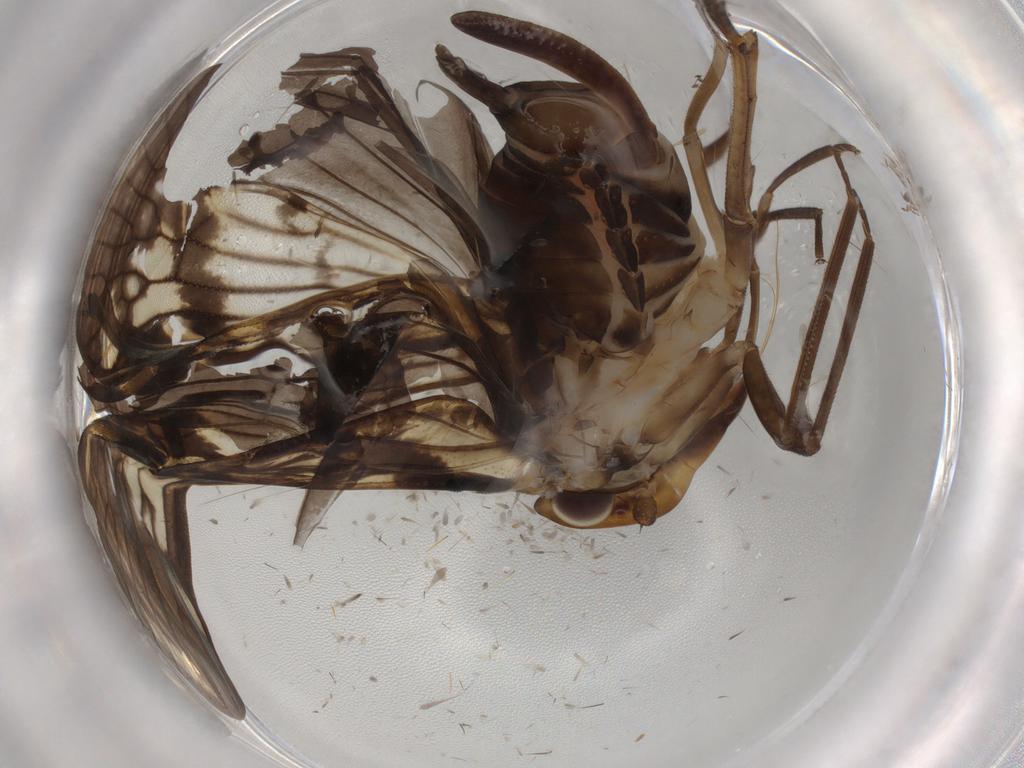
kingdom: Animalia
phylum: Arthropoda
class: Insecta
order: Hemiptera
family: Cixiidae
